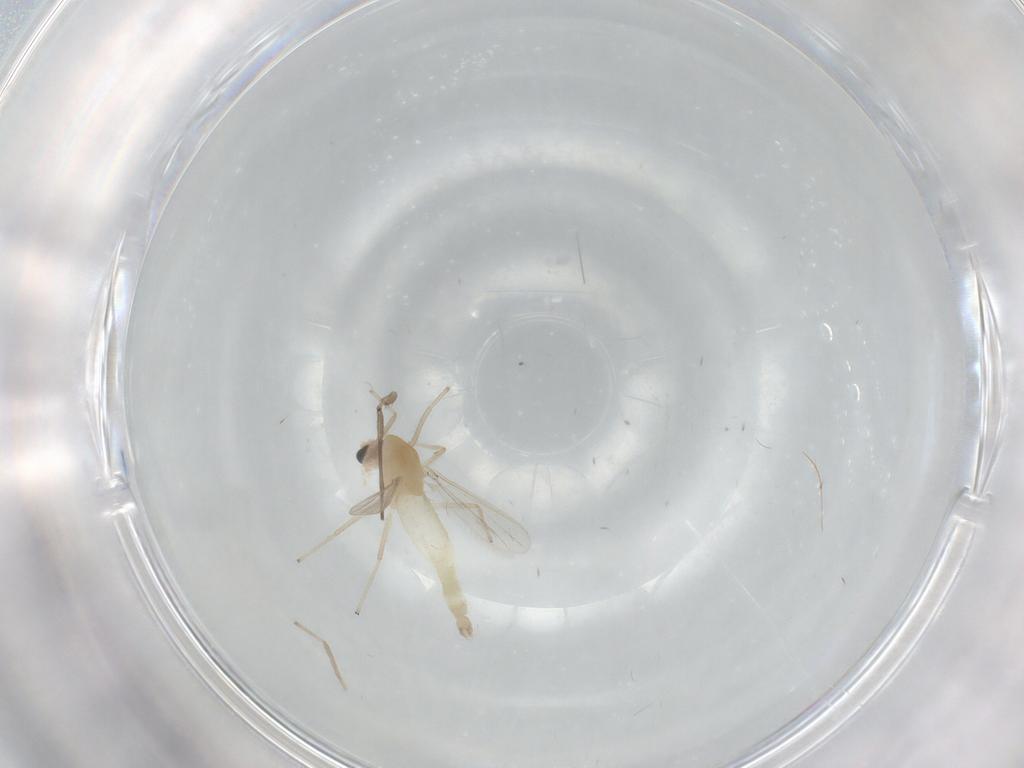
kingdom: Animalia
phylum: Arthropoda
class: Insecta
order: Diptera
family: Chironomidae
